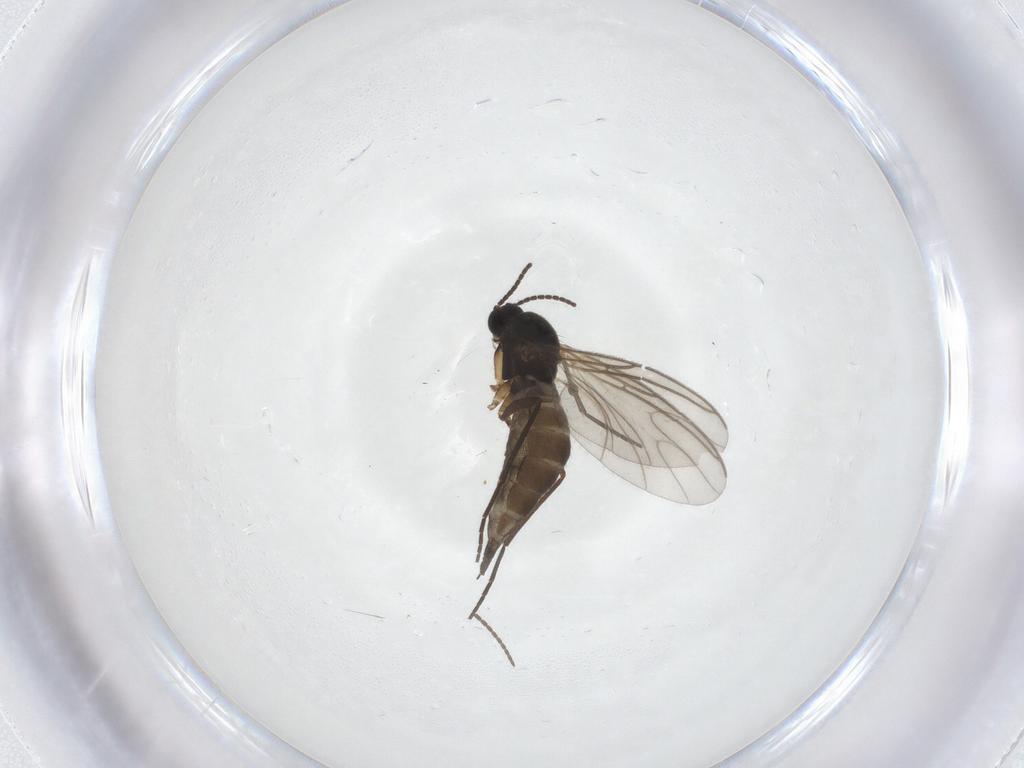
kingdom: Animalia
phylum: Arthropoda
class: Insecta
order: Diptera
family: Sciaridae
